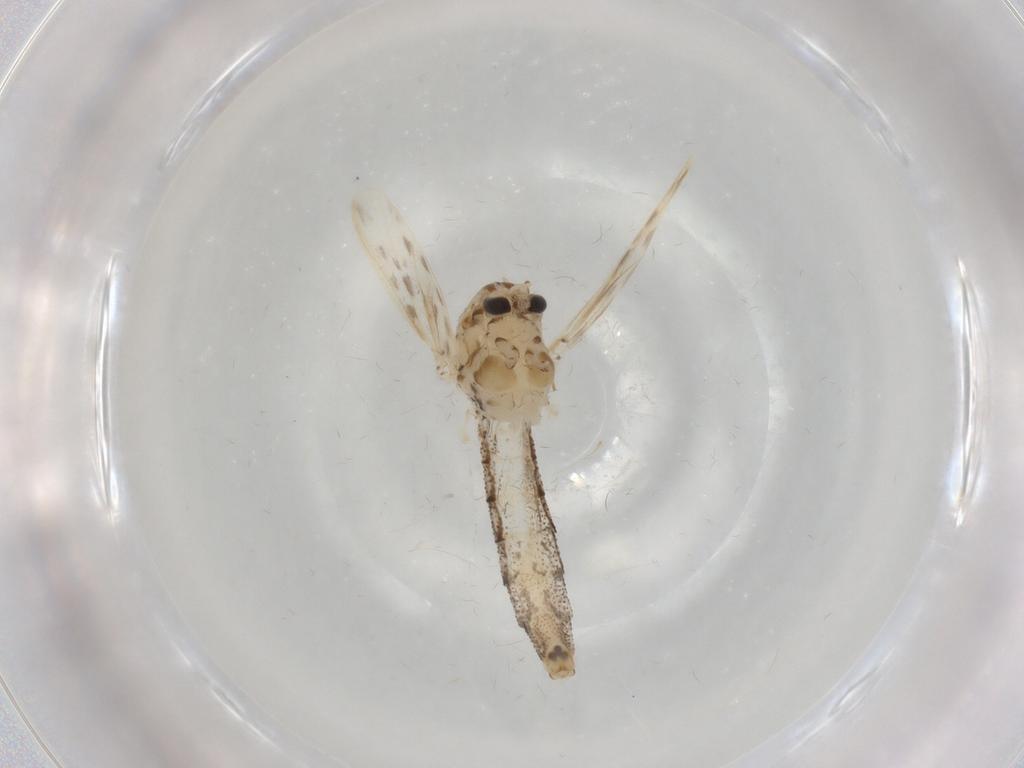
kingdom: Animalia
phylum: Arthropoda
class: Insecta
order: Diptera
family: Chaoboridae
